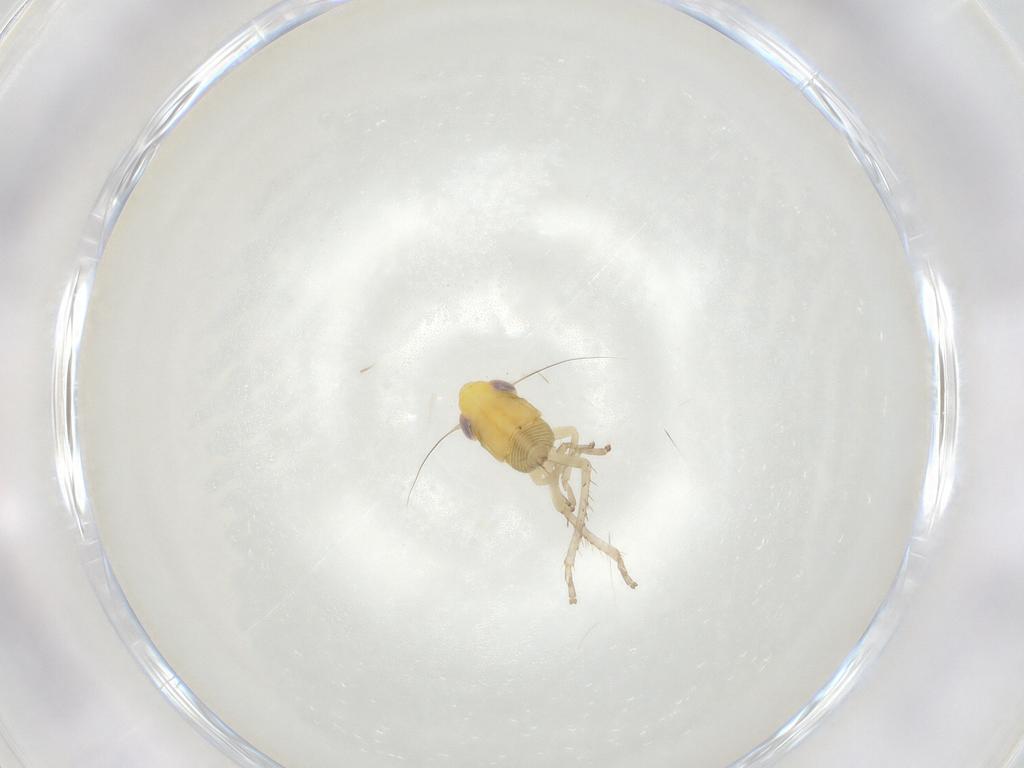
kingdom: Animalia
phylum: Arthropoda
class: Insecta
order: Hemiptera
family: Cicadellidae
